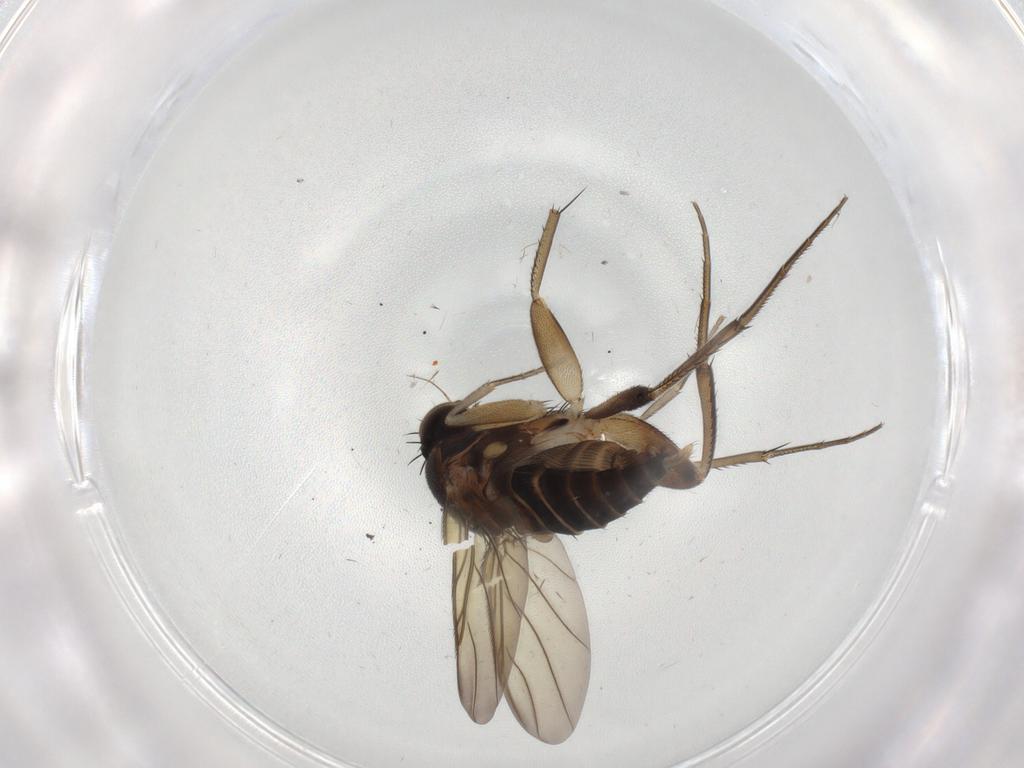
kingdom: Animalia
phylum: Arthropoda
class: Insecta
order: Diptera
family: Phoridae
